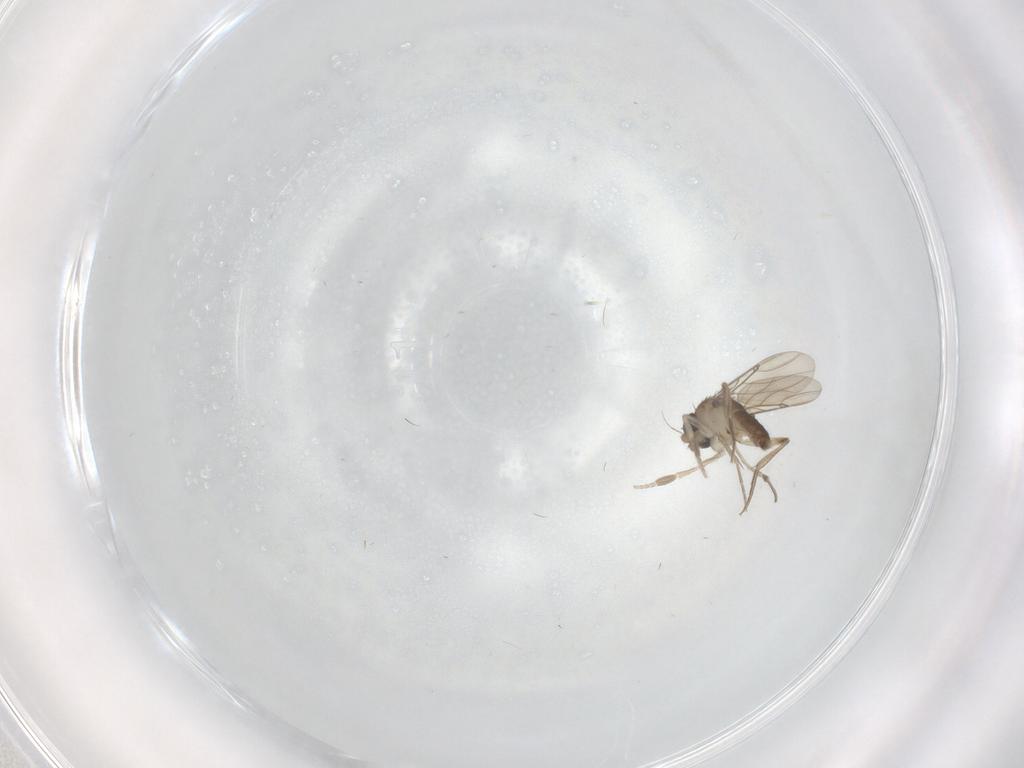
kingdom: Animalia
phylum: Arthropoda
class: Insecta
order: Diptera
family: Phoridae
